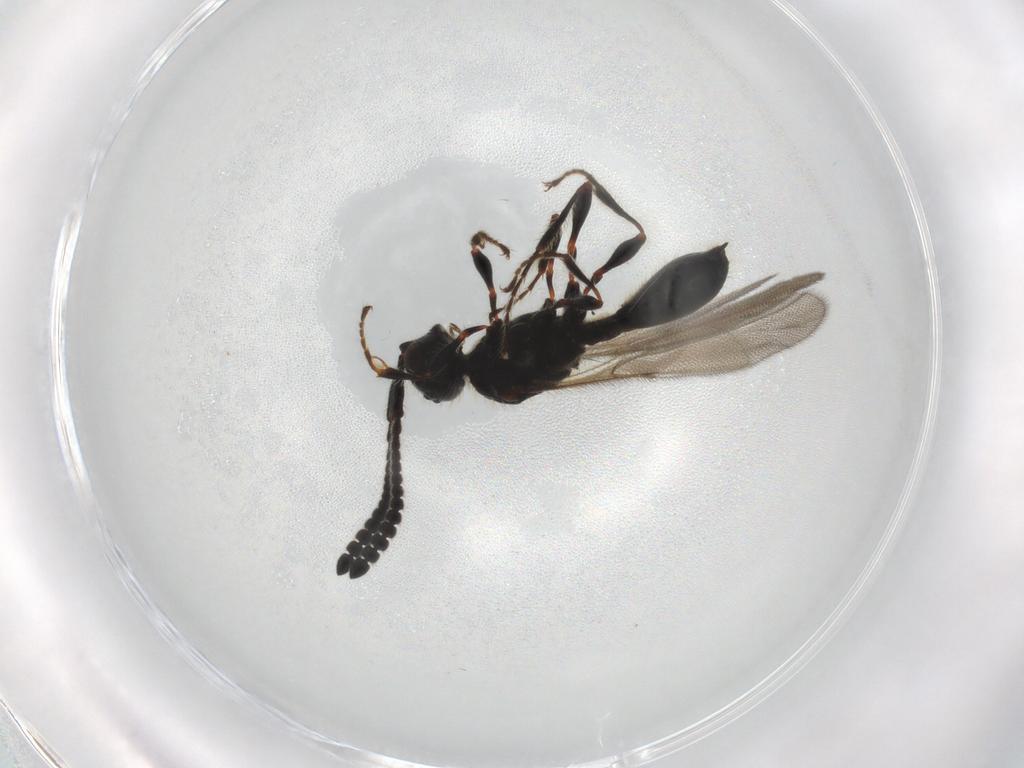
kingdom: Animalia
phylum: Arthropoda
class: Insecta
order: Hymenoptera
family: Diapriidae
